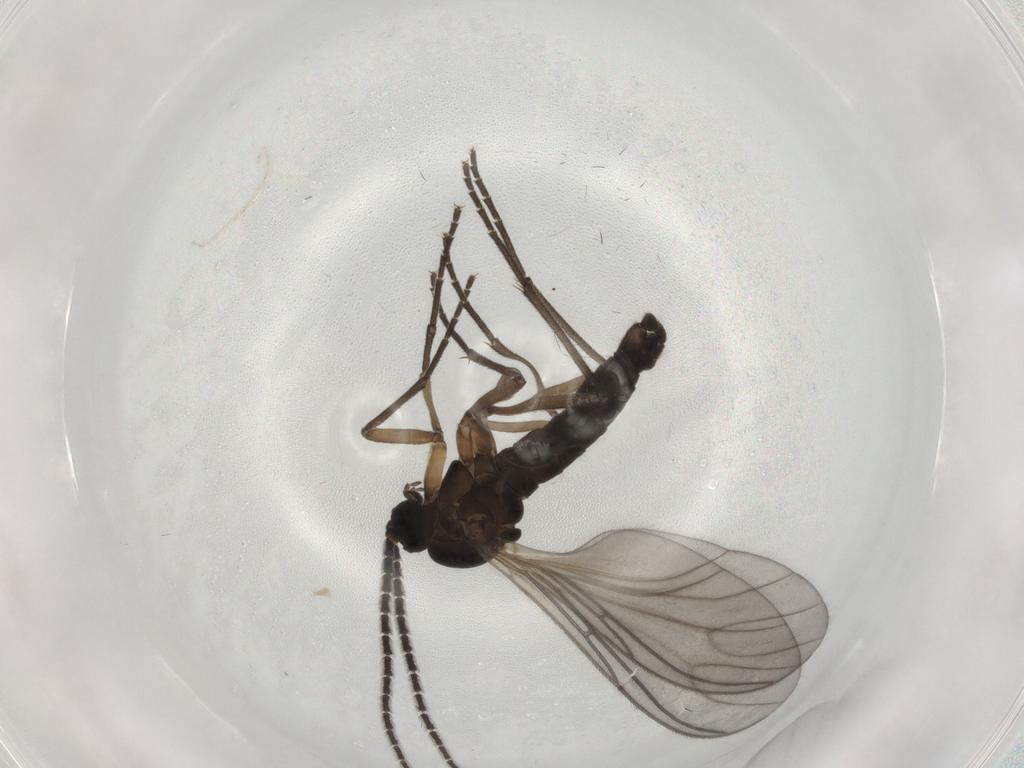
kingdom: Animalia
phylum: Arthropoda
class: Insecta
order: Diptera
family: Sciaridae
